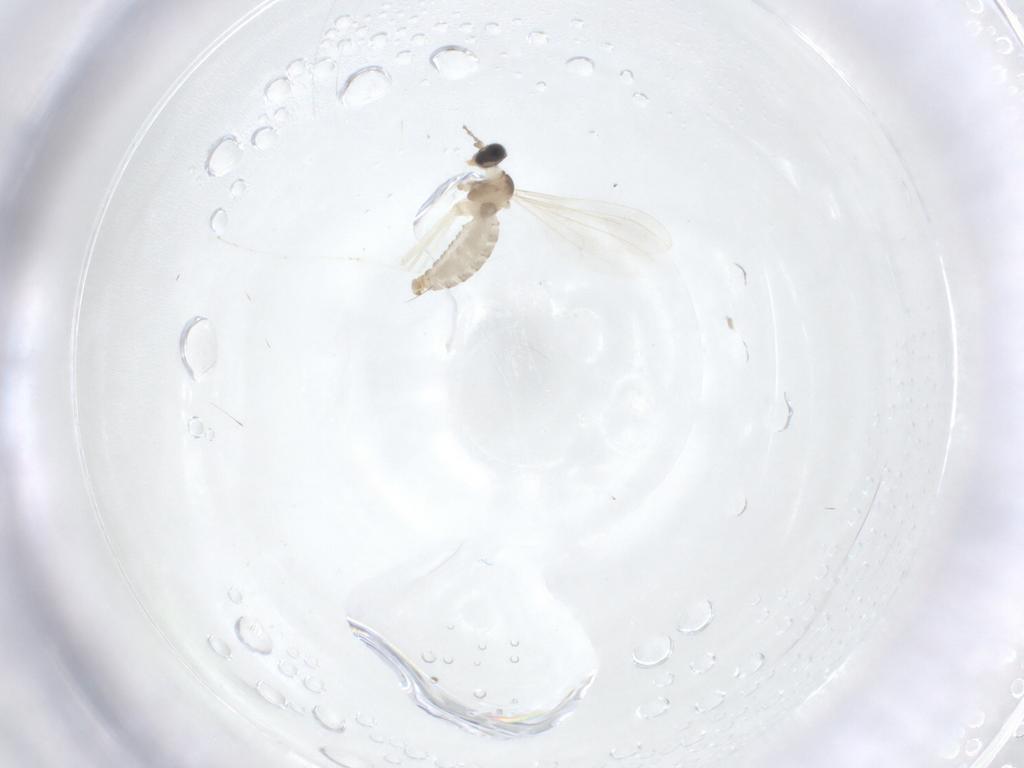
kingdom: Animalia
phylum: Arthropoda
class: Insecta
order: Diptera
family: Cecidomyiidae
